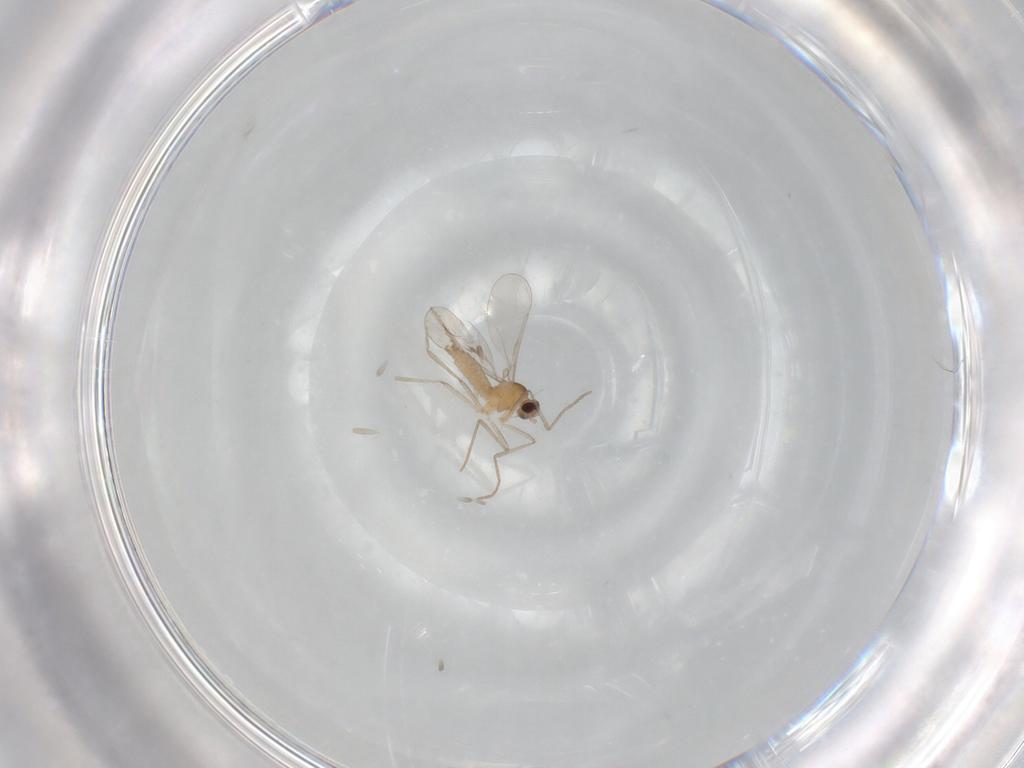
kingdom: Animalia
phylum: Arthropoda
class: Insecta
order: Diptera
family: Cecidomyiidae
